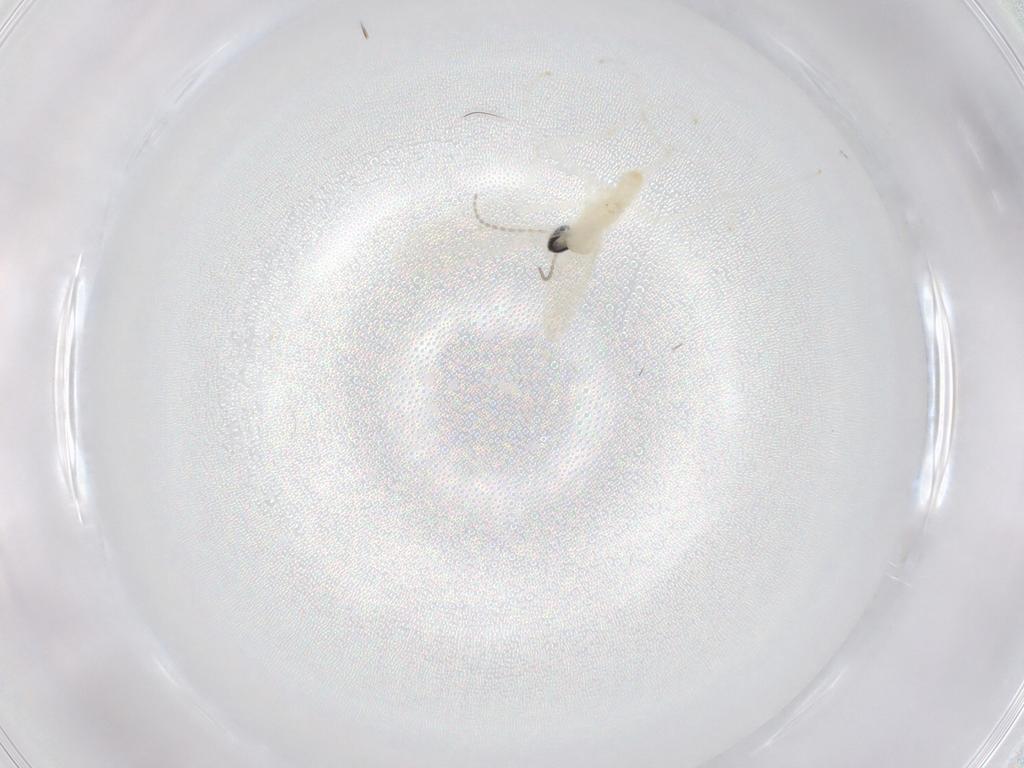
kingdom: Animalia
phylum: Arthropoda
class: Insecta
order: Diptera
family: Cecidomyiidae
